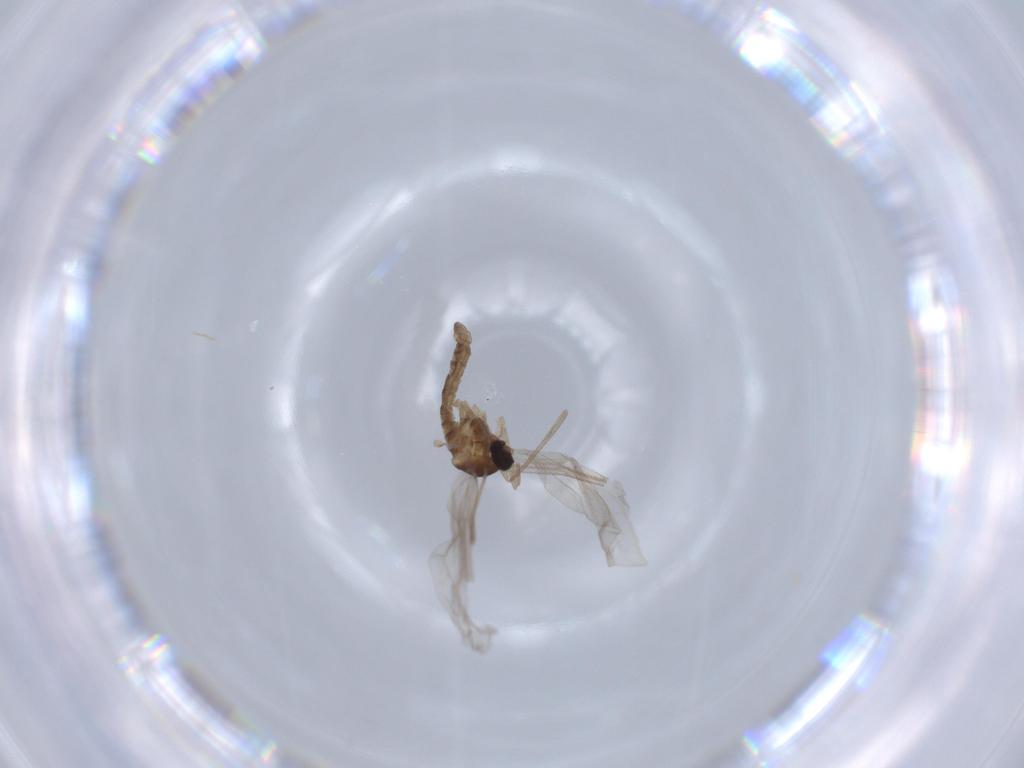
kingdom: Animalia
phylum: Arthropoda
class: Insecta
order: Diptera
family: Cecidomyiidae
